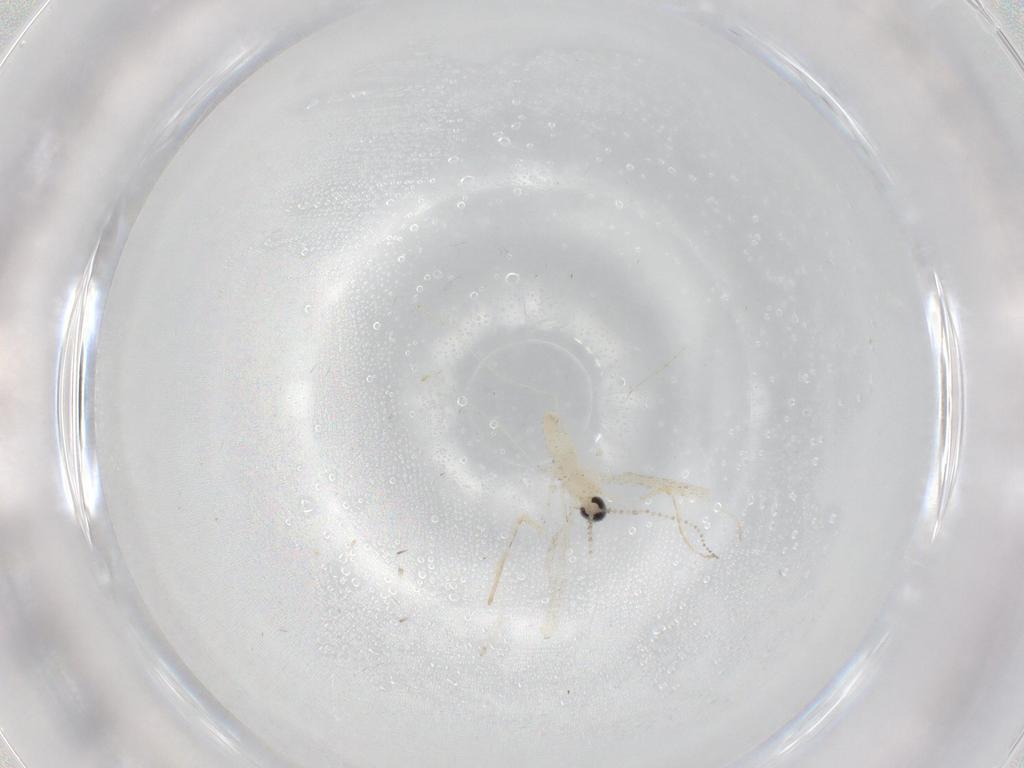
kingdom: Animalia
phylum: Arthropoda
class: Insecta
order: Diptera
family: Cecidomyiidae
